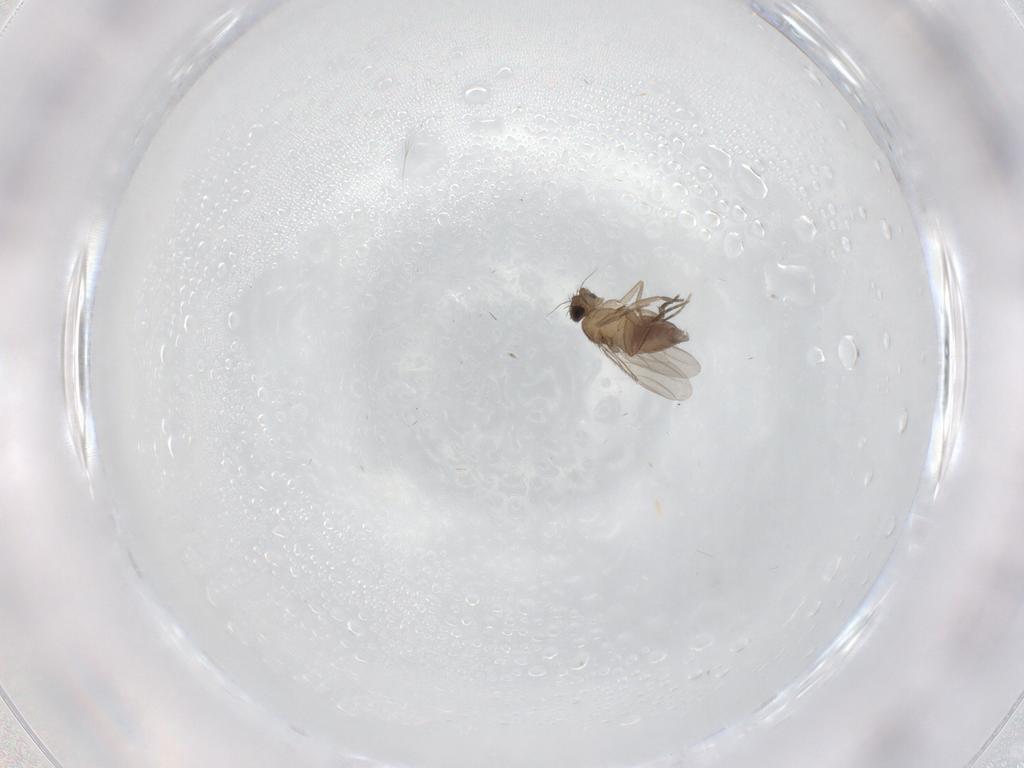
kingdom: Animalia
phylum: Arthropoda
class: Insecta
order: Diptera
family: Phoridae
